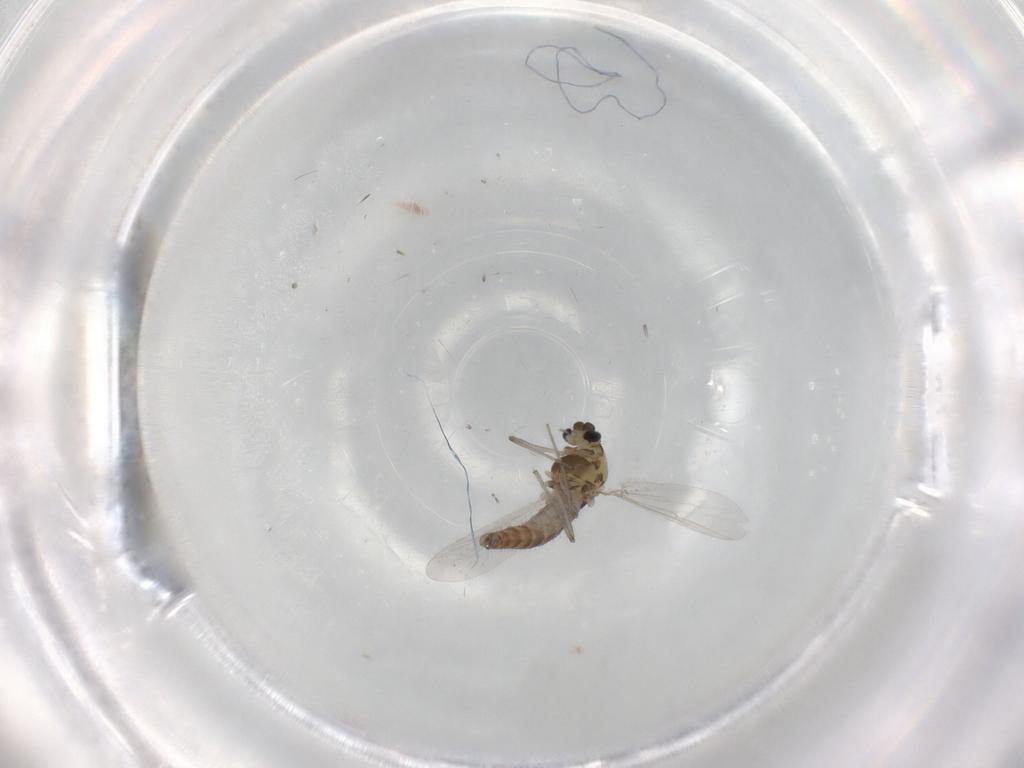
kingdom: Animalia
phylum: Arthropoda
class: Insecta
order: Diptera
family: Chironomidae
